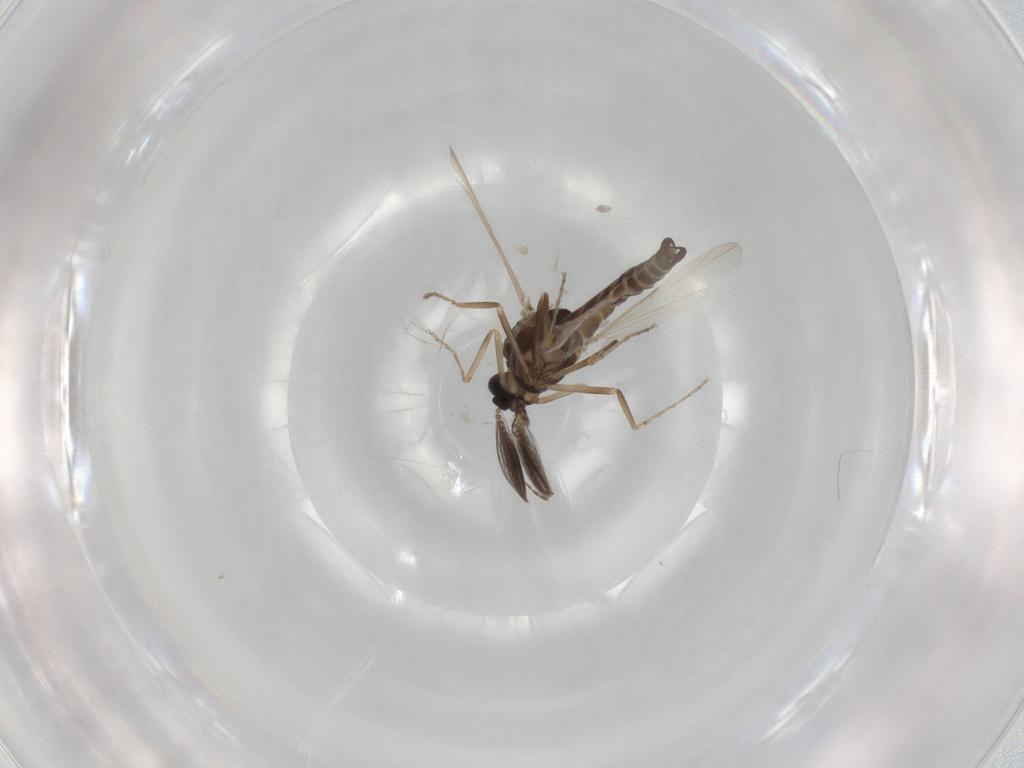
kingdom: Animalia
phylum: Arthropoda
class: Insecta
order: Diptera
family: Ceratopogonidae
